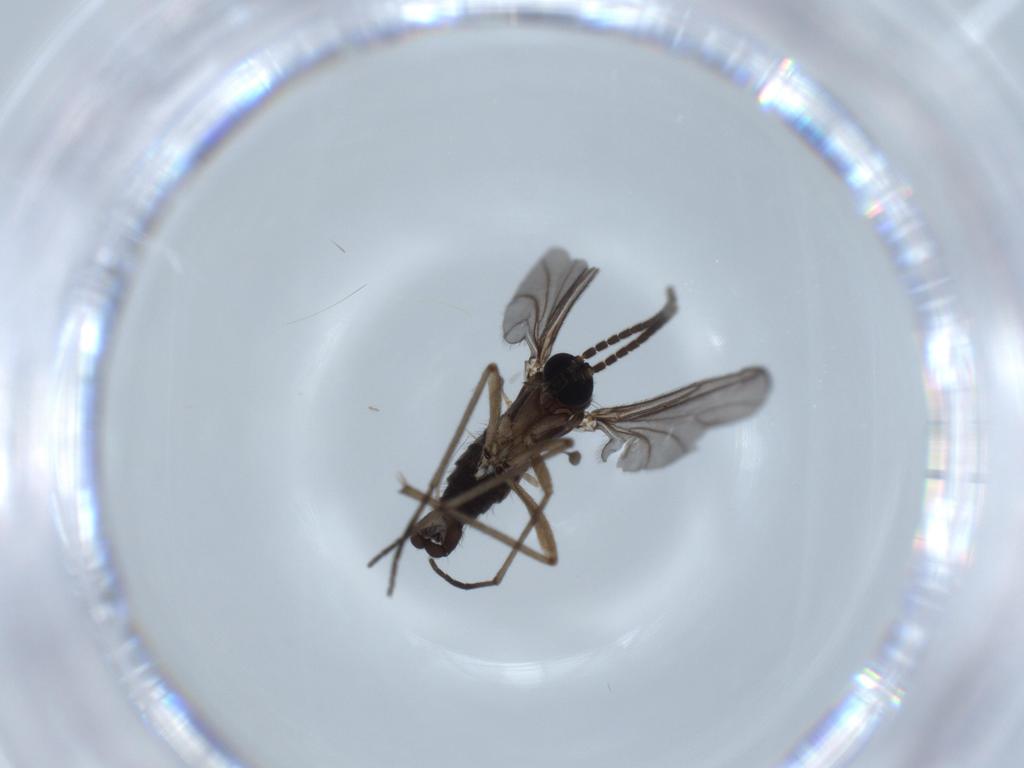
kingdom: Animalia
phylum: Arthropoda
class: Insecta
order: Diptera
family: Sciaridae
